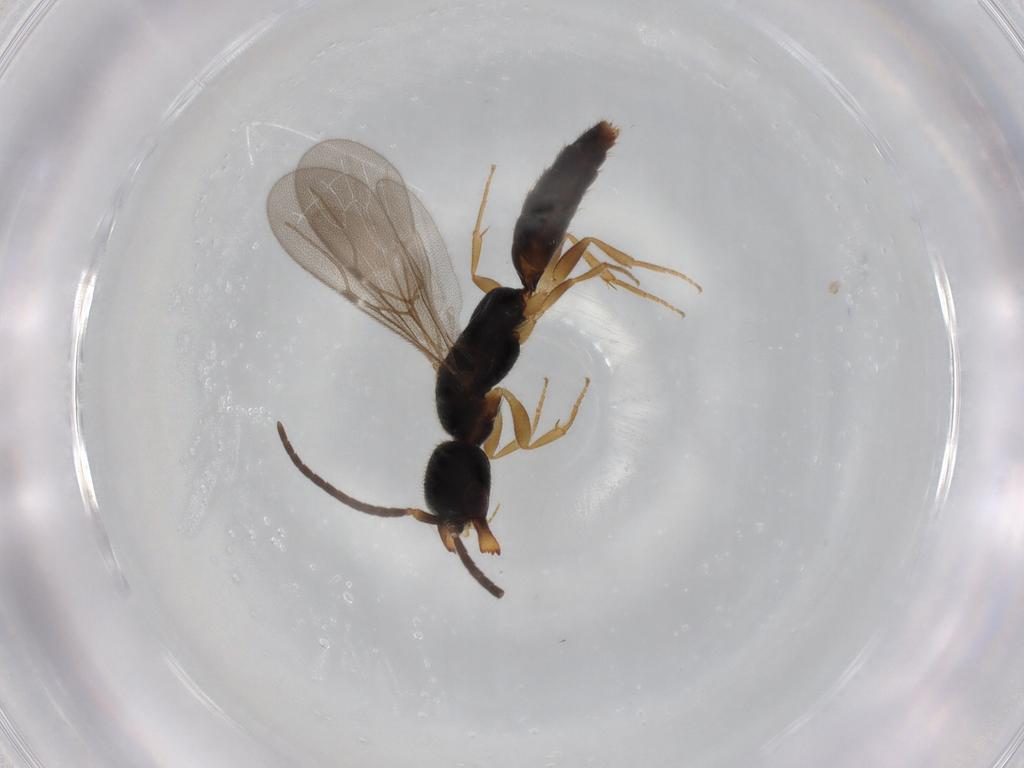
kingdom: Animalia
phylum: Arthropoda
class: Insecta
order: Hymenoptera
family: Bethylidae
